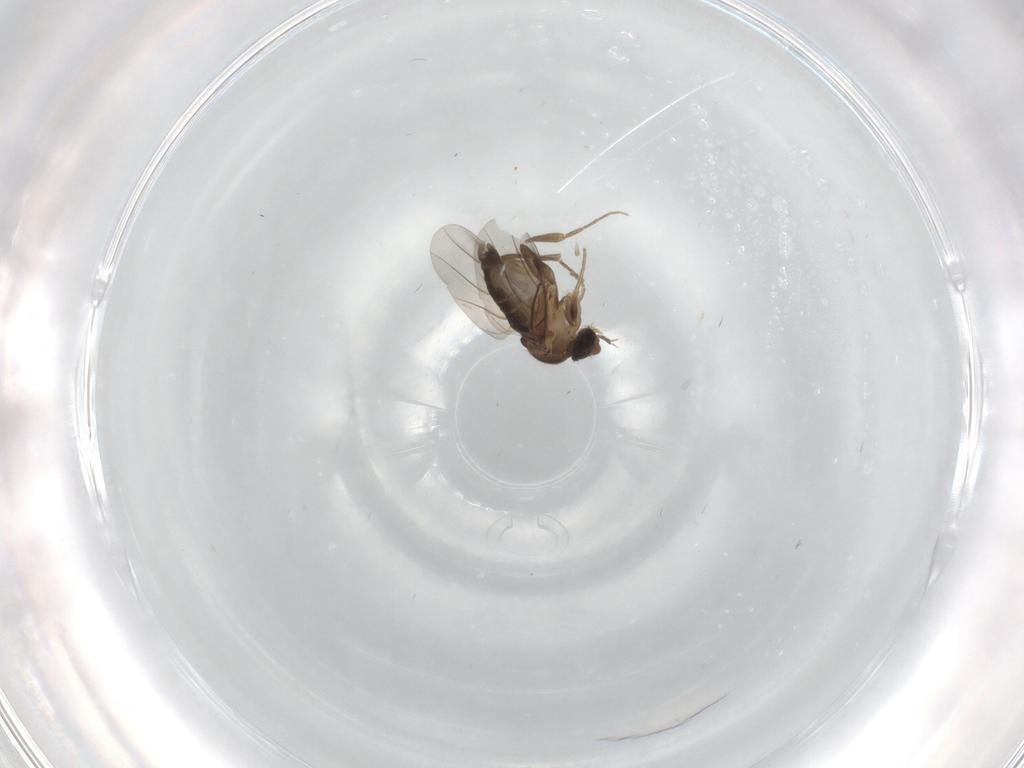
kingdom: Animalia
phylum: Arthropoda
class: Insecta
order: Diptera
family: Phoridae
